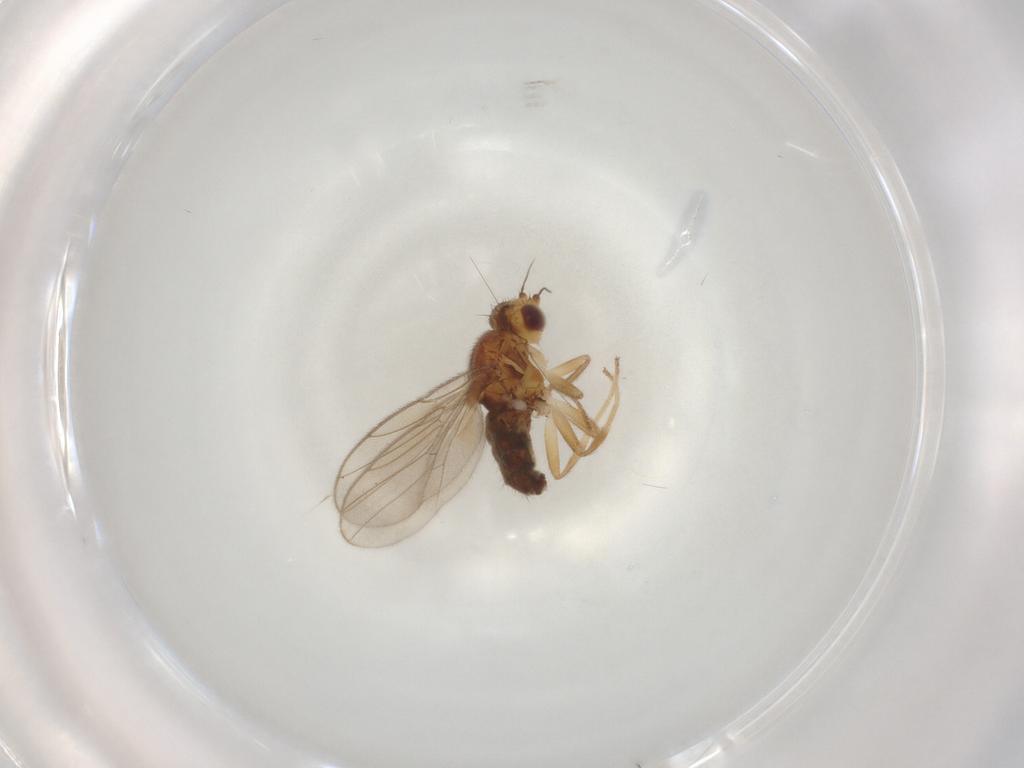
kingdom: Animalia
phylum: Arthropoda
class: Insecta
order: Diptera
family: Chloropidae
